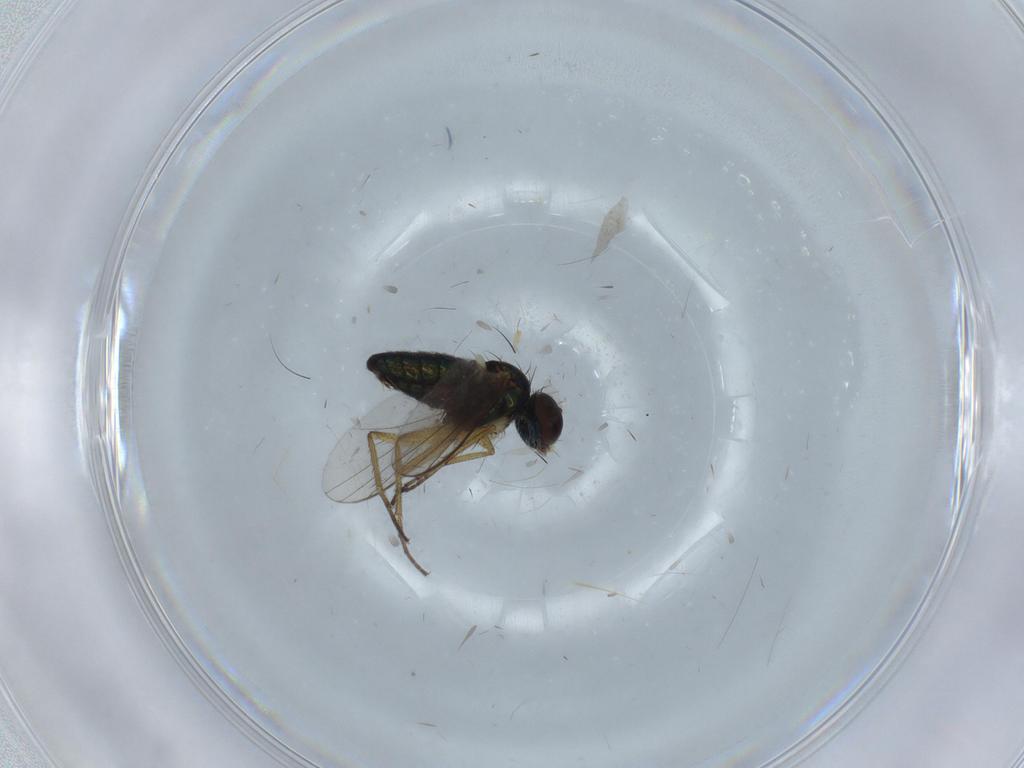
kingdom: Animalia
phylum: Arthropoda
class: Insecta
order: Diptera
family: Dolichopodidae
